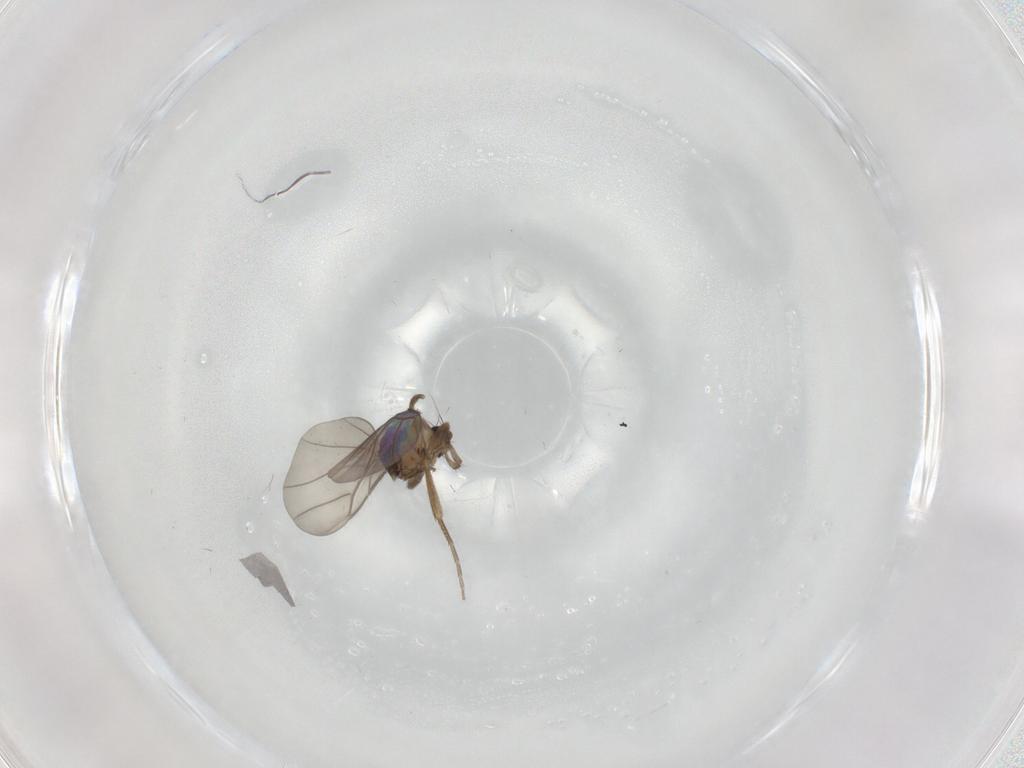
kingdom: Animalia
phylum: Arthropoda
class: Insecta
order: Diptera
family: Phoridae
